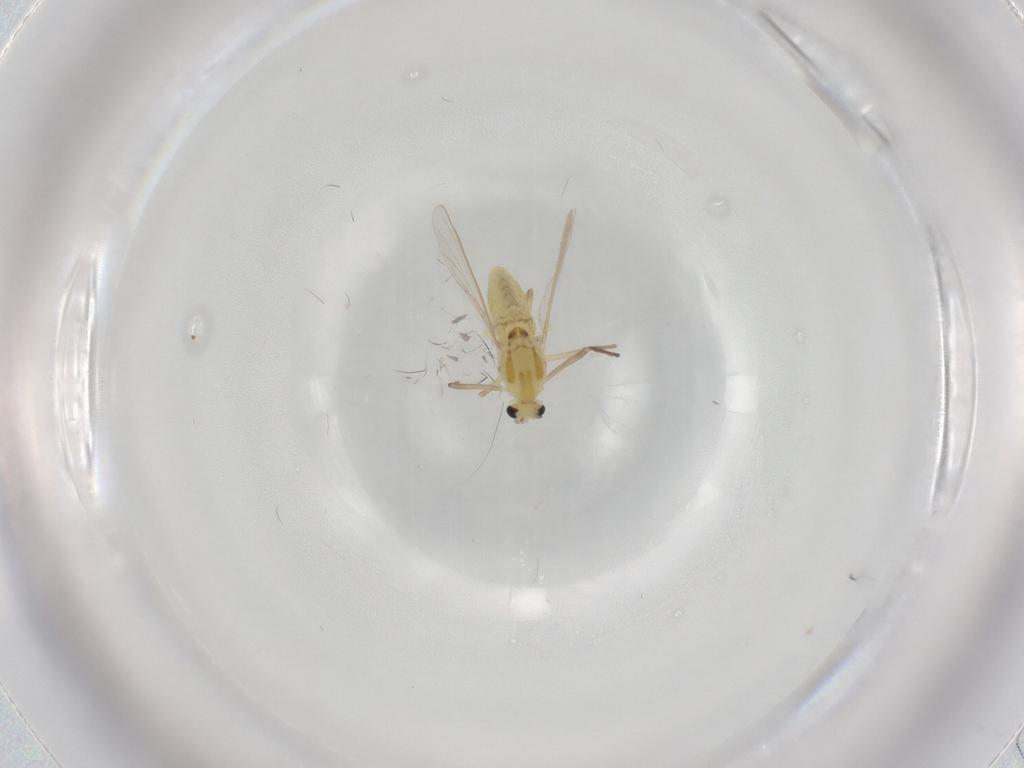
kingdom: Animalia
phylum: Arthropoda
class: Insecta
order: Diptera
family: Chironomidae
